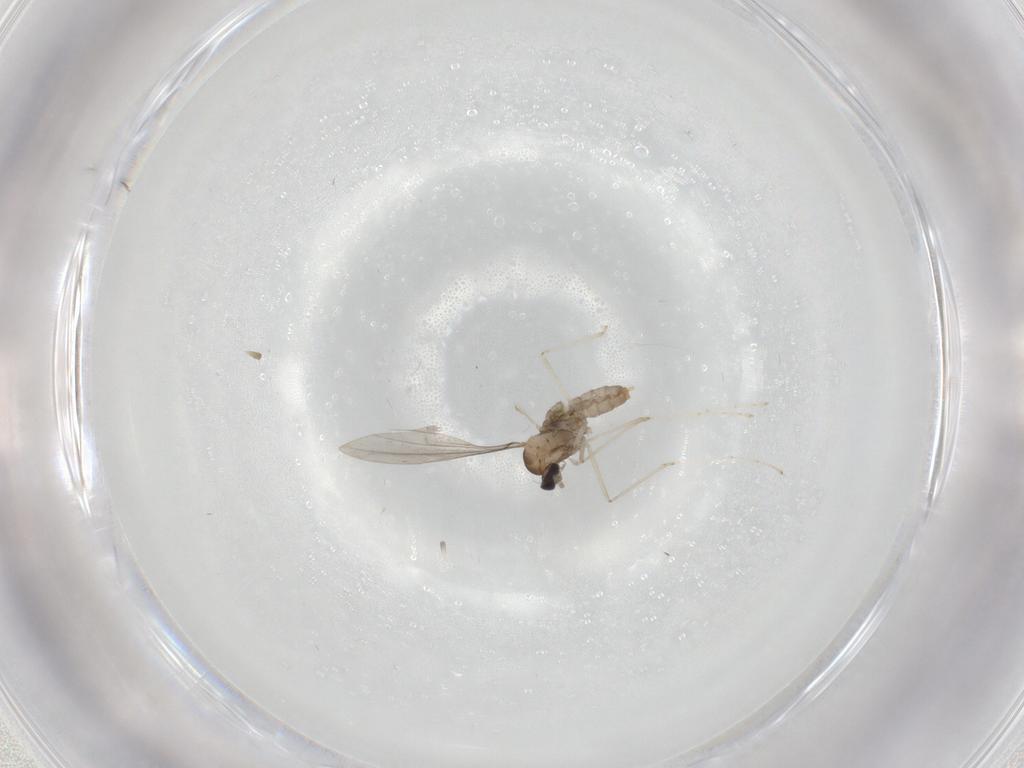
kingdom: Animalia
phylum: Arthropoda
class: Insecta
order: Diptera
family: Cecidomyiidae
